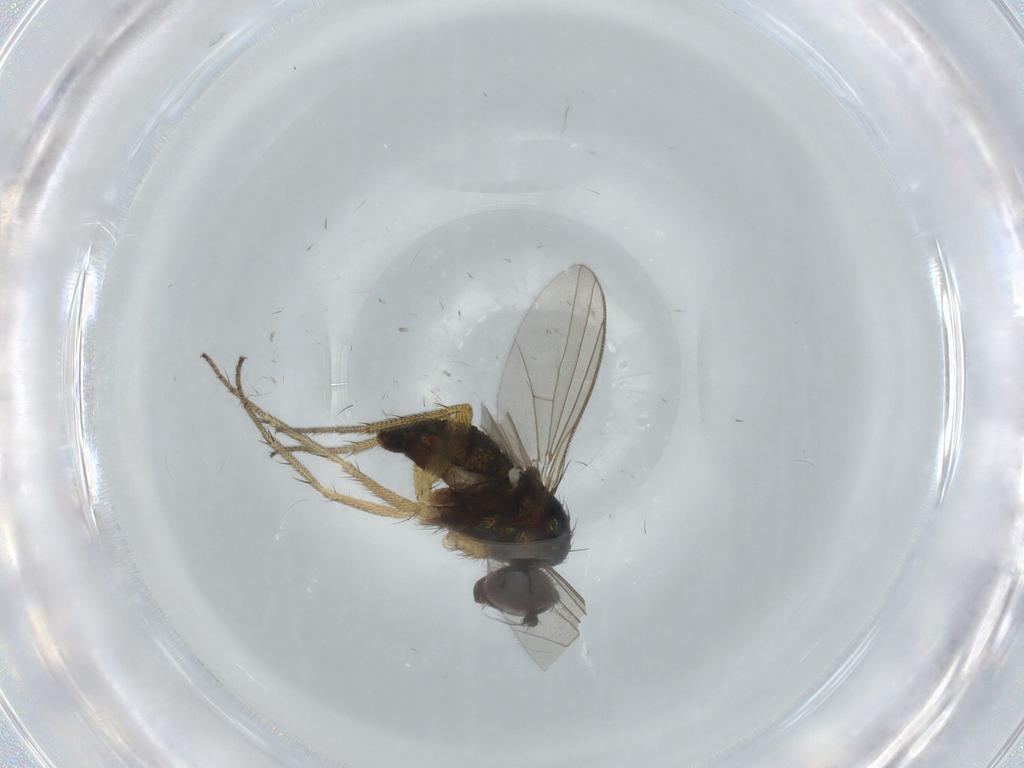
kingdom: Animalia
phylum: Arthropoda
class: Insecta
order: Diptera
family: Dolichopodidae
